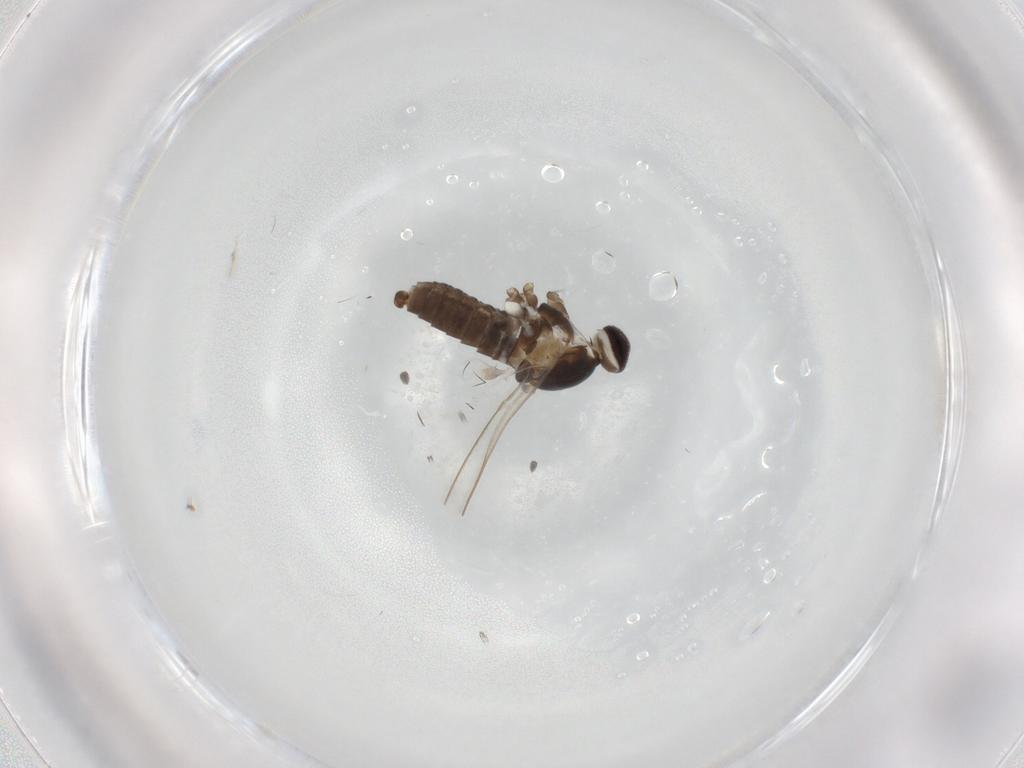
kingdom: Animalia
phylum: Arthropoda
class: Insecta
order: Diptera
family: Cecidomyiidae
